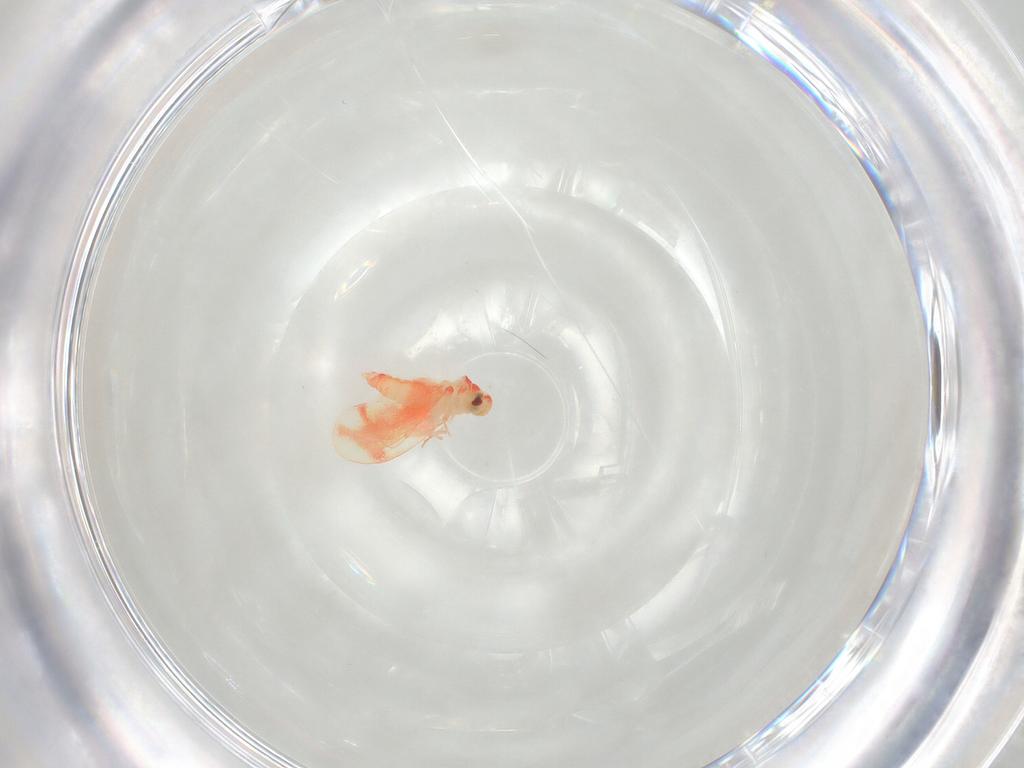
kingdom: Animalia
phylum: Arthropoda
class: Insecta
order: Hemiptera
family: Aleyrodidae
